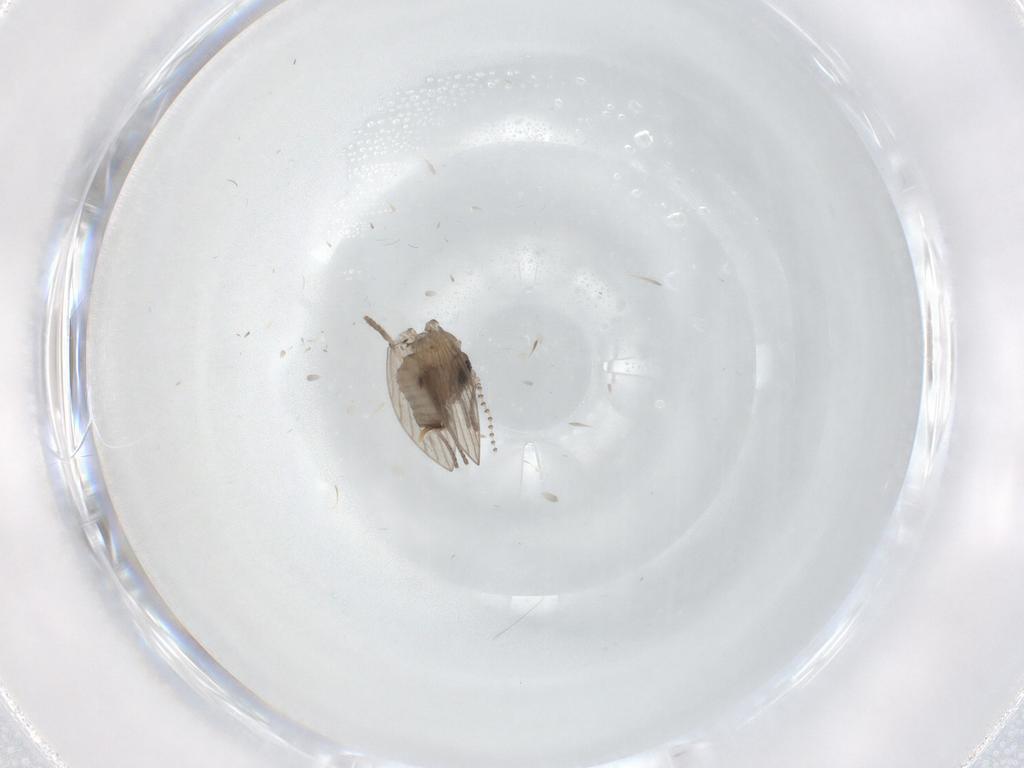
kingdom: Animalia
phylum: Arthropoda
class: Insecta
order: Diptera
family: Psychodidae
